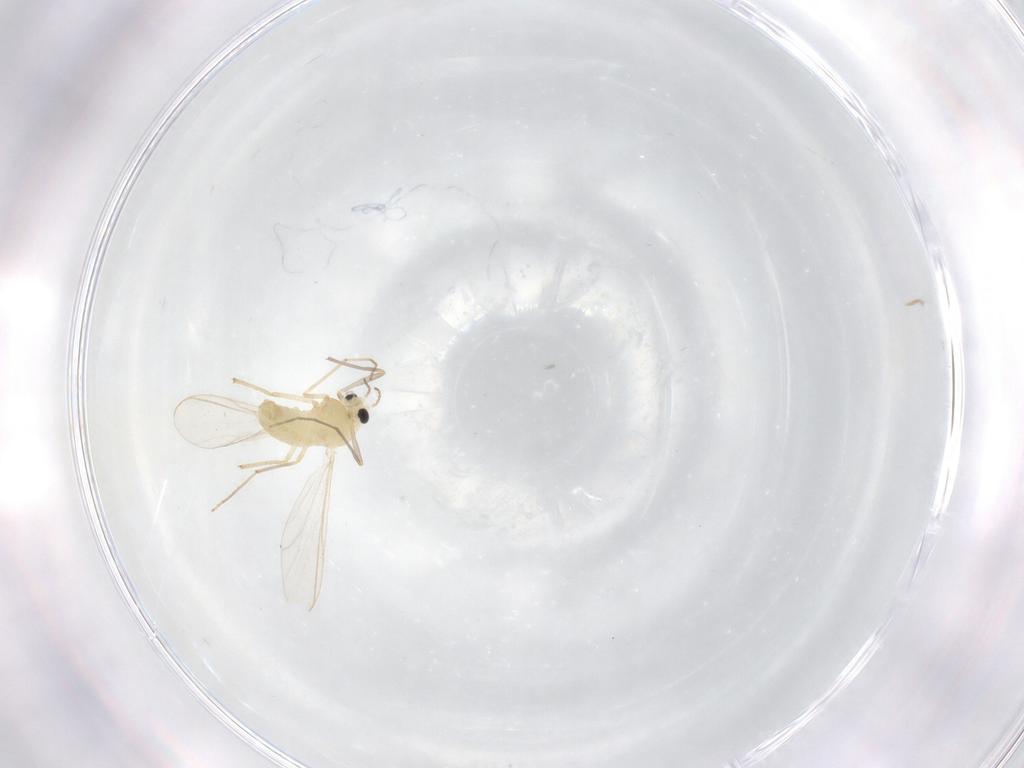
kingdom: Animalia
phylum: Arthropoda
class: Insecta
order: Diptera
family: Chironomidae
